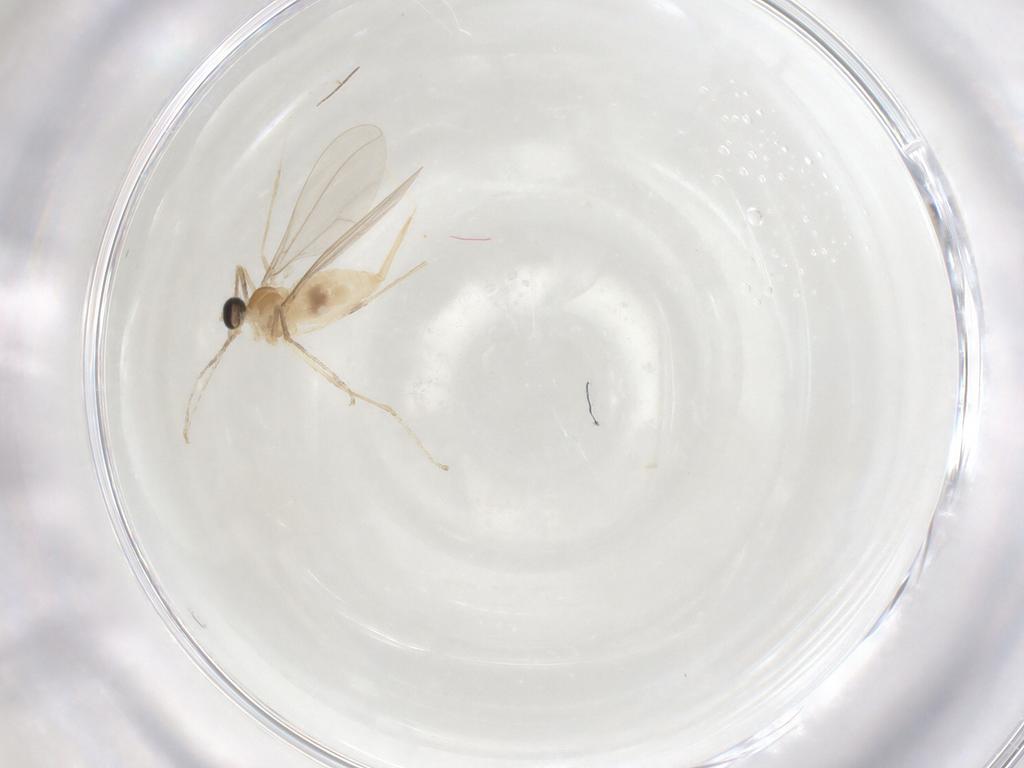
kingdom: Animalia
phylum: Arthropoda
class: Insecta
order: Diptera
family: Chironomidae
